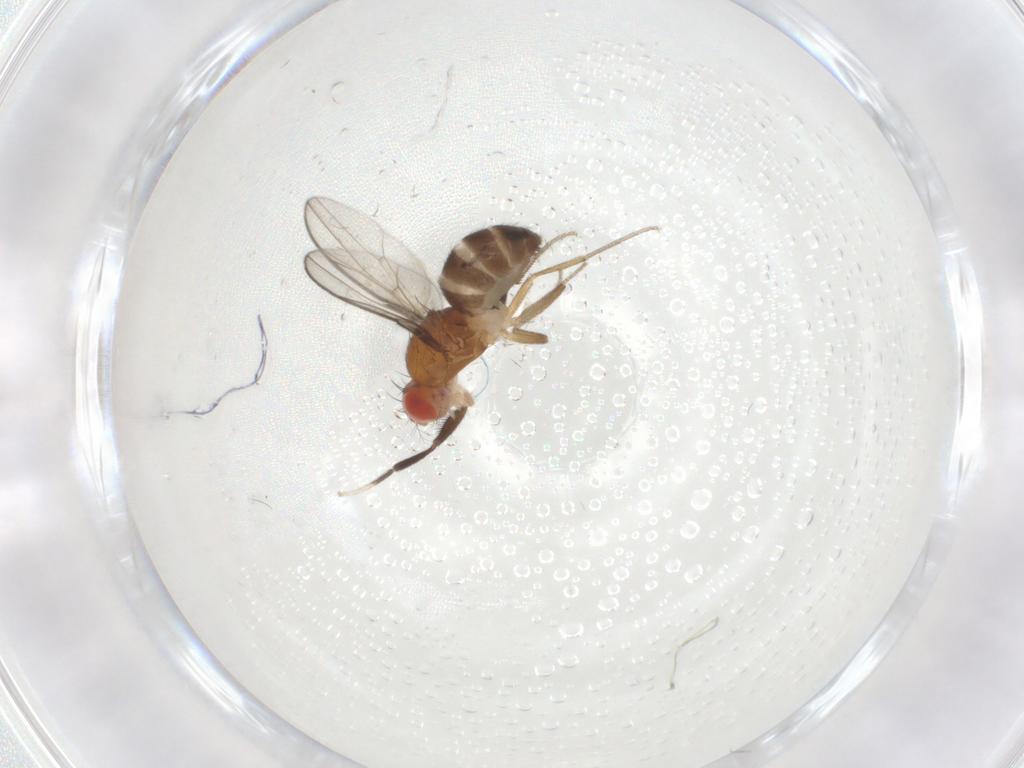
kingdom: Animalia
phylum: Arthropoda
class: Insecta
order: Diptera
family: Drosophilidae
